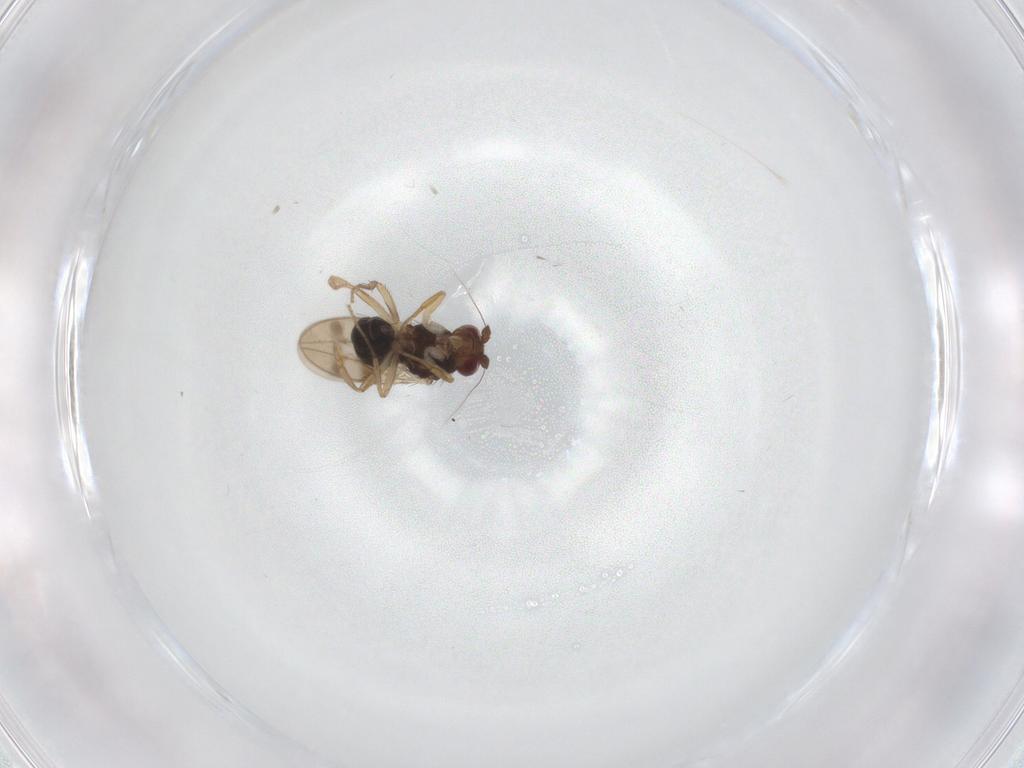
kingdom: Animalia
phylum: Arthropoda
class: Insecta
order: Diptera
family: Sphaeroceridae
